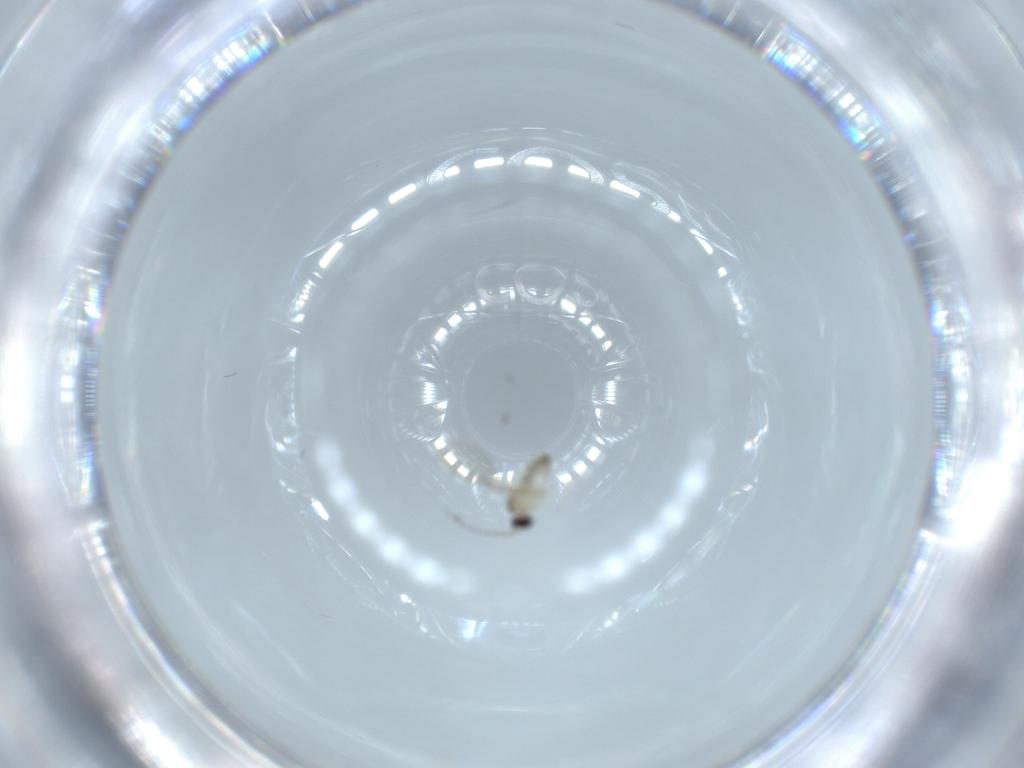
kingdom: Animalia
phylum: Arthropoda
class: Insecta
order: Diptera
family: Cecidomyiidae
